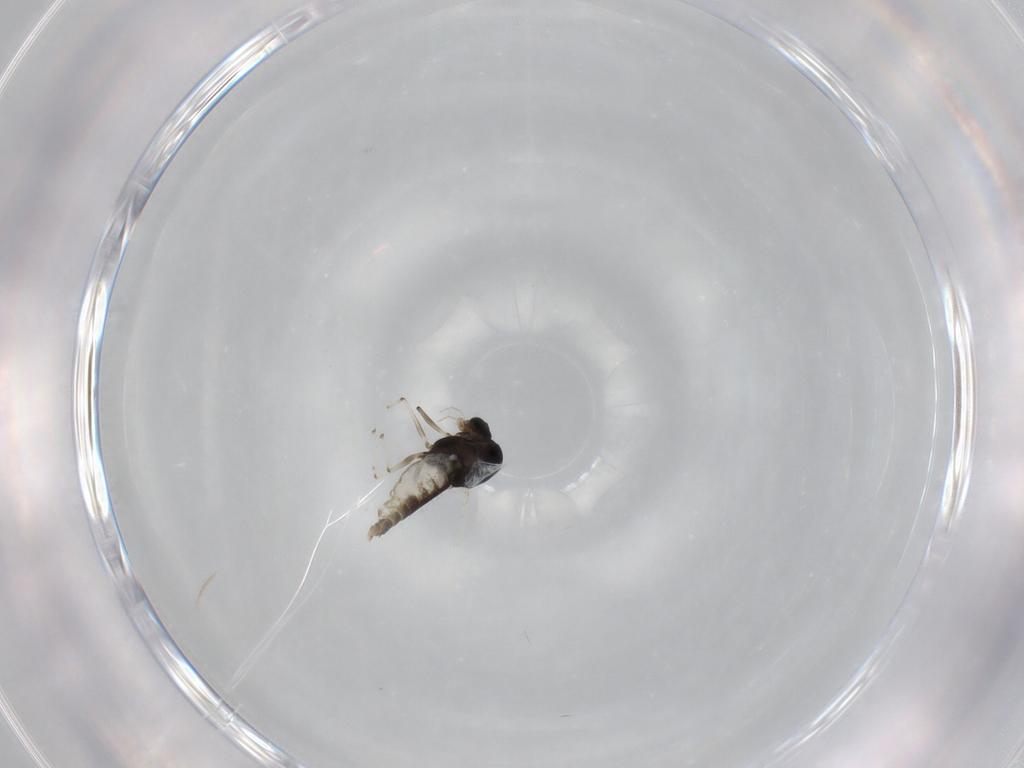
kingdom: Animalia
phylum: Arthropoda
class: Insecta
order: Diptera
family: Chironomidae
